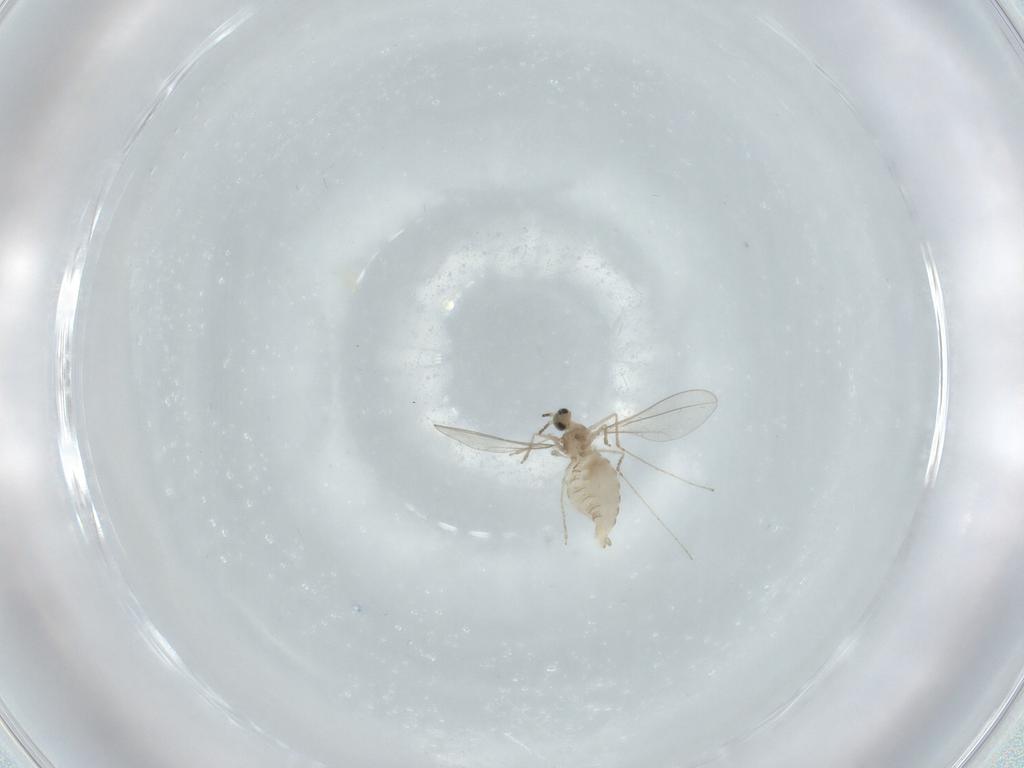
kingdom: Animalia
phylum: Arthropoda
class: Insecta
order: Diptera
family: Cecidomyiidae
